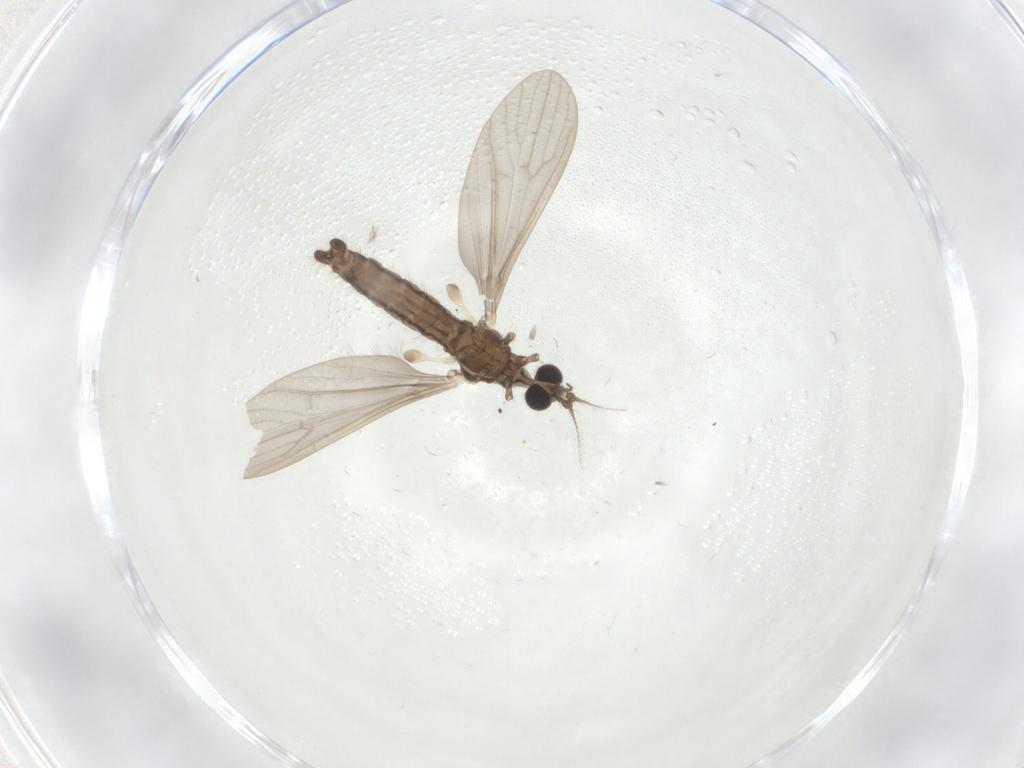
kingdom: Animalia
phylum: Arthropoda
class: Insecta
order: Diptera
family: Limoniidae
